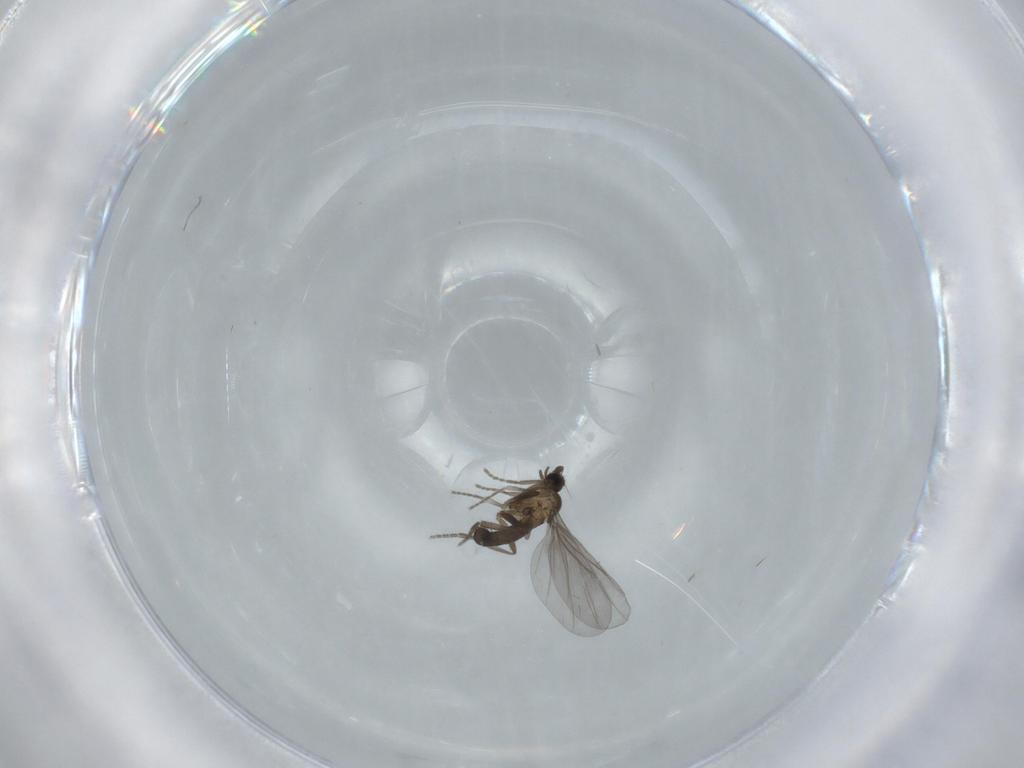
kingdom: Animalia
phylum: Arthropoda
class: Insecta
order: Diptera
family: Phoridae
